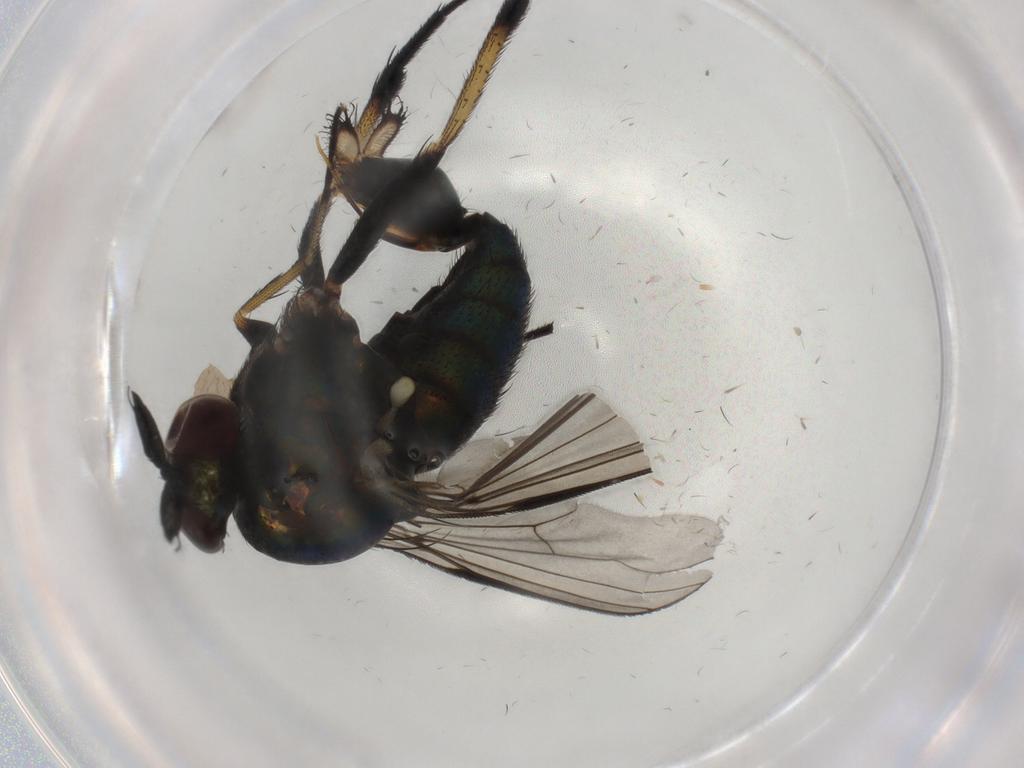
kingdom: Animalia
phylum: Arthropoda
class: Insecta
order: Diptera
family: Dolichopodidae
